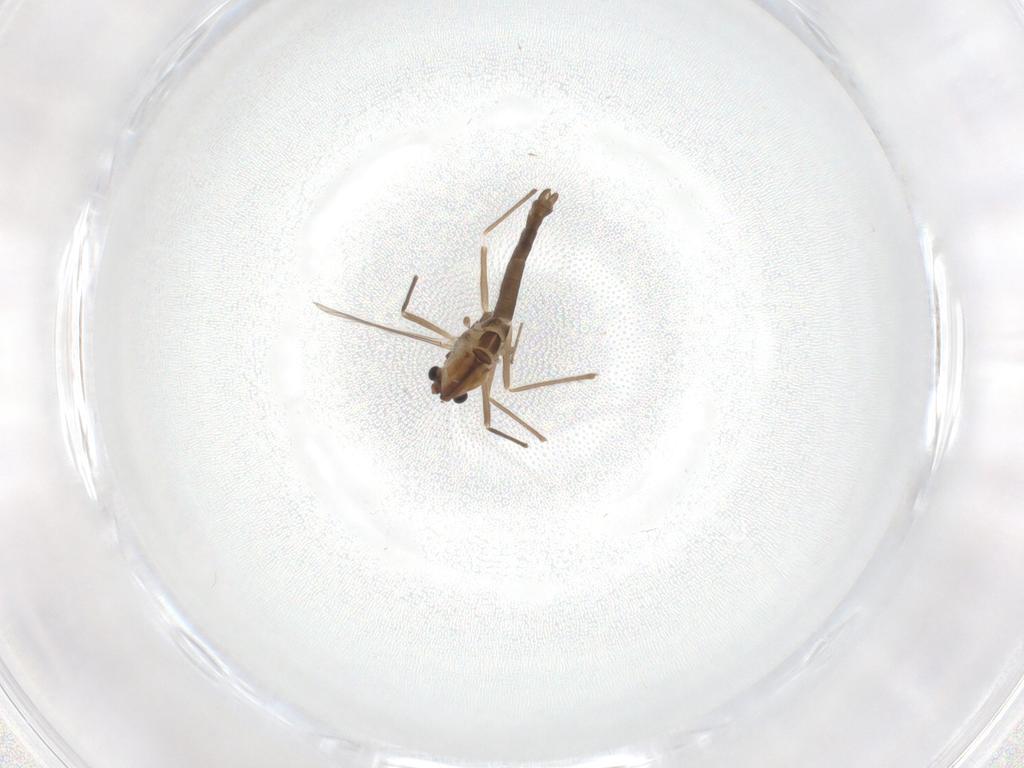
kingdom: Animalia
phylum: Arthropoda
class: Insecta
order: Diptera
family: Chironomidae
